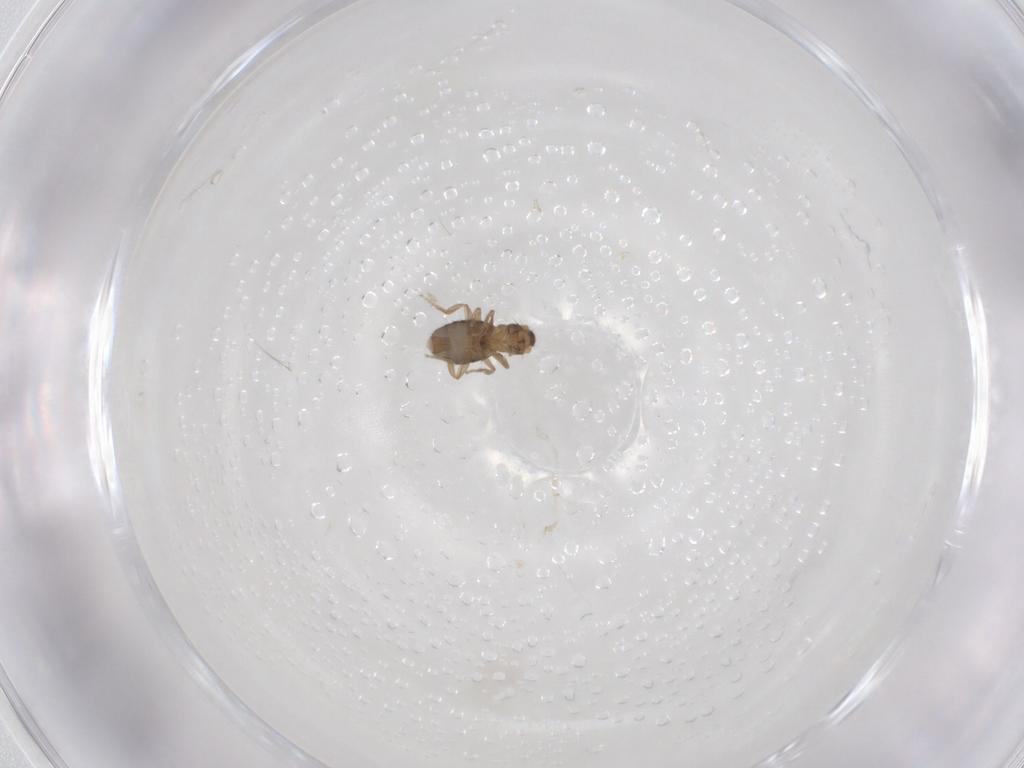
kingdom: Animalia
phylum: Arthropoda
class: Insecta
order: Diptera
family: Phoridae
